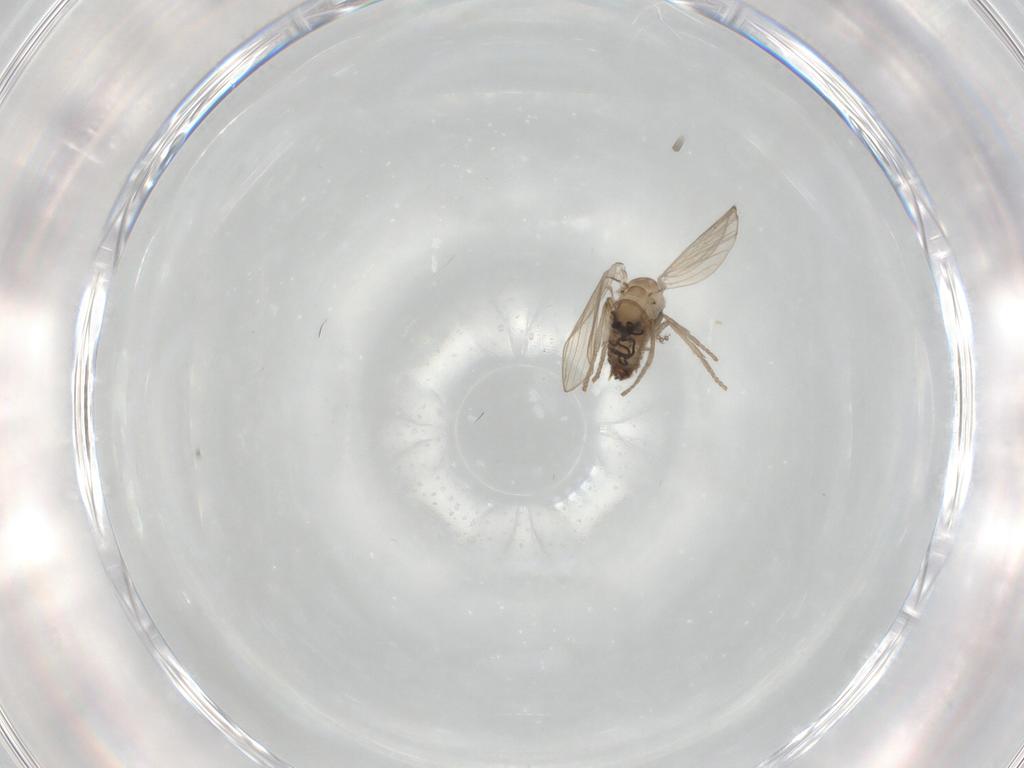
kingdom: Animalia
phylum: Arthropoda
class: Insecta
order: Diptera
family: Psychodidae
